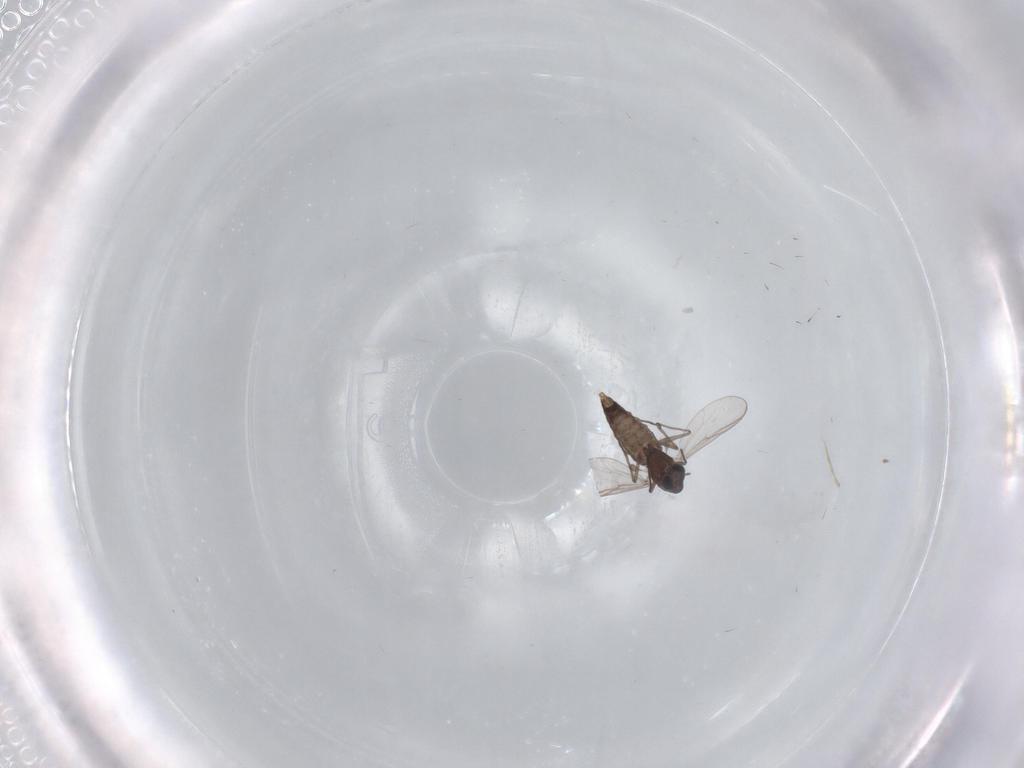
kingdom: Animalia
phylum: Arthropoda
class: Insecta
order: Diptera
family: Chironomidae
